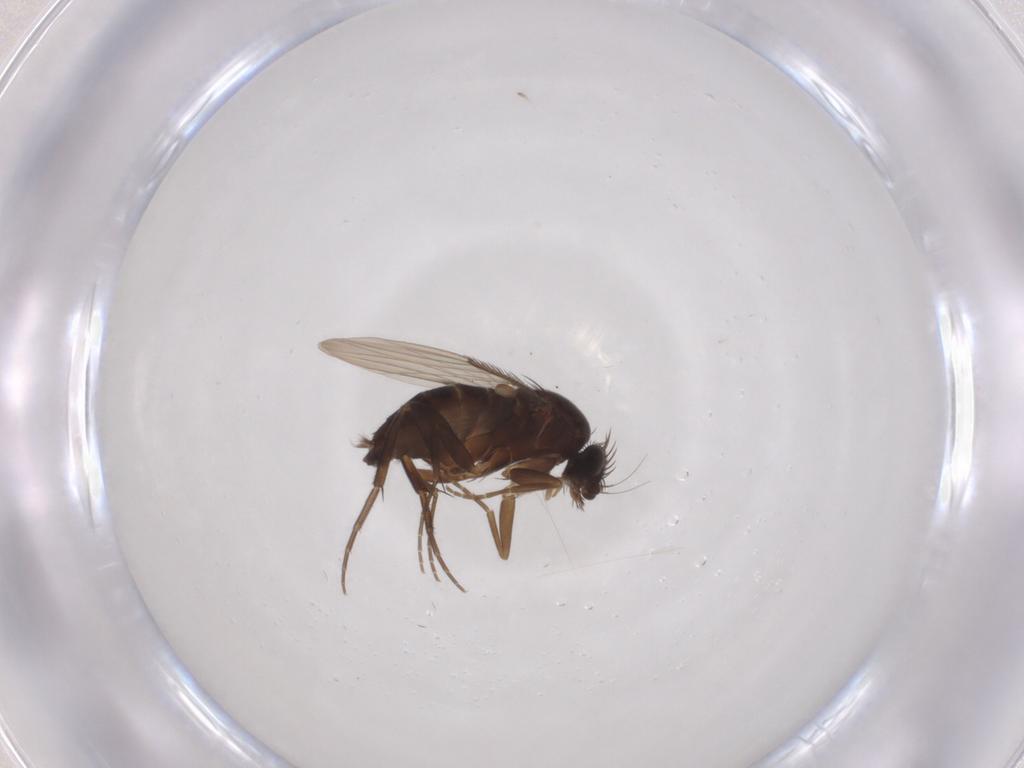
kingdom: Animalia
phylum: Arthropoda
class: Insecta
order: Diptera
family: Phoridae
